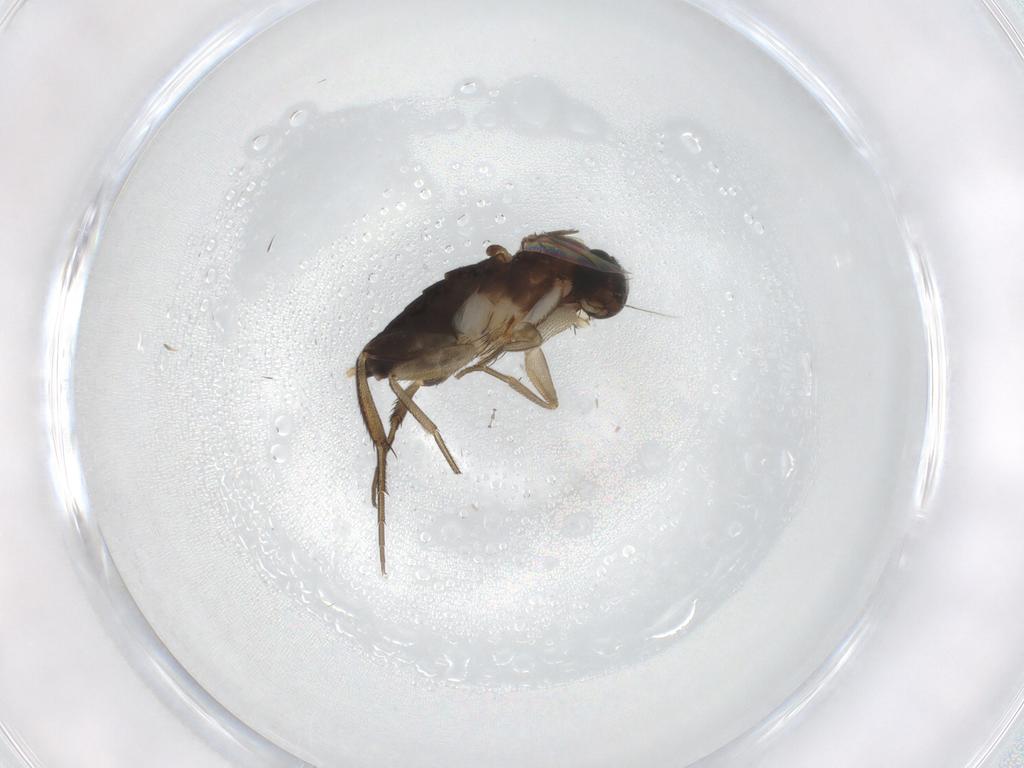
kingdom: Animalia
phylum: Arthropoda
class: Insecta
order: Diptera
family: Phoridae
